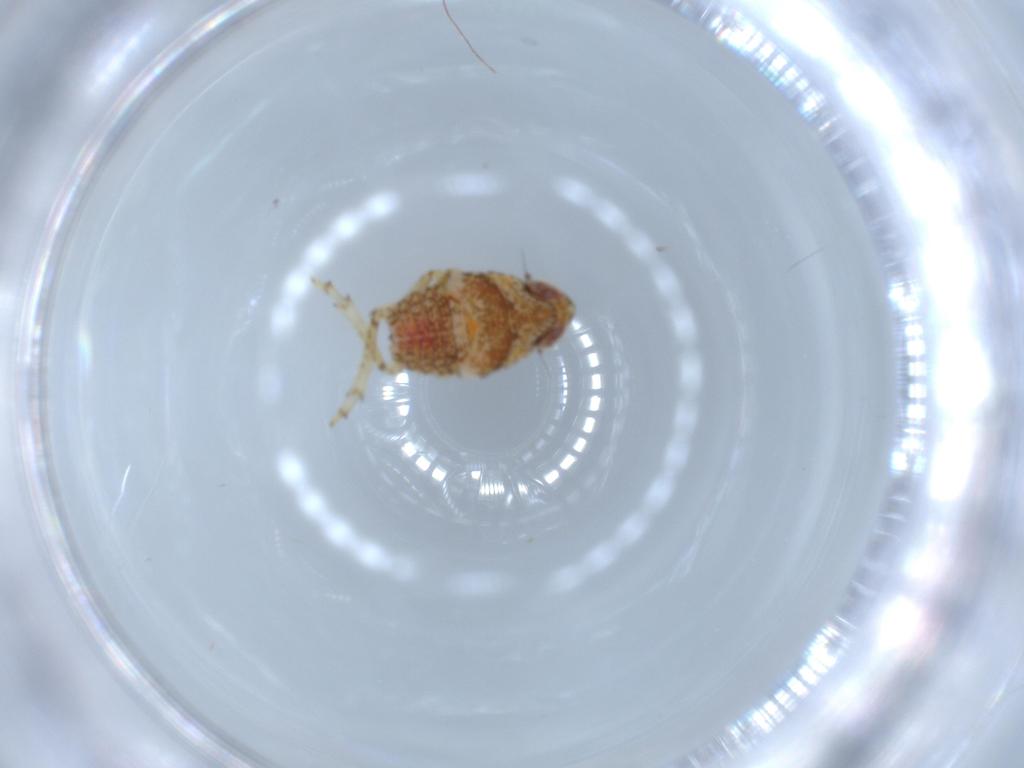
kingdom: Animalia
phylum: Arthropoda
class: Insecta
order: Hemiptera
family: Issidae
